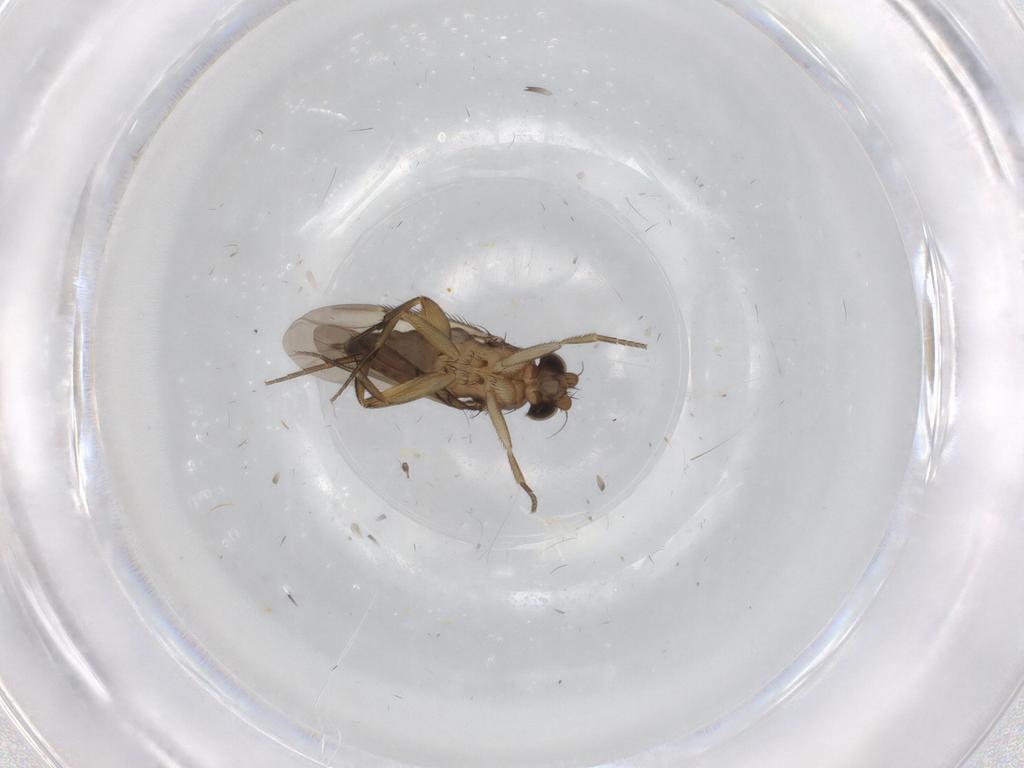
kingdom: Animalia
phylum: Arthropoda
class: Insecta
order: Diptera
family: Phoridae
